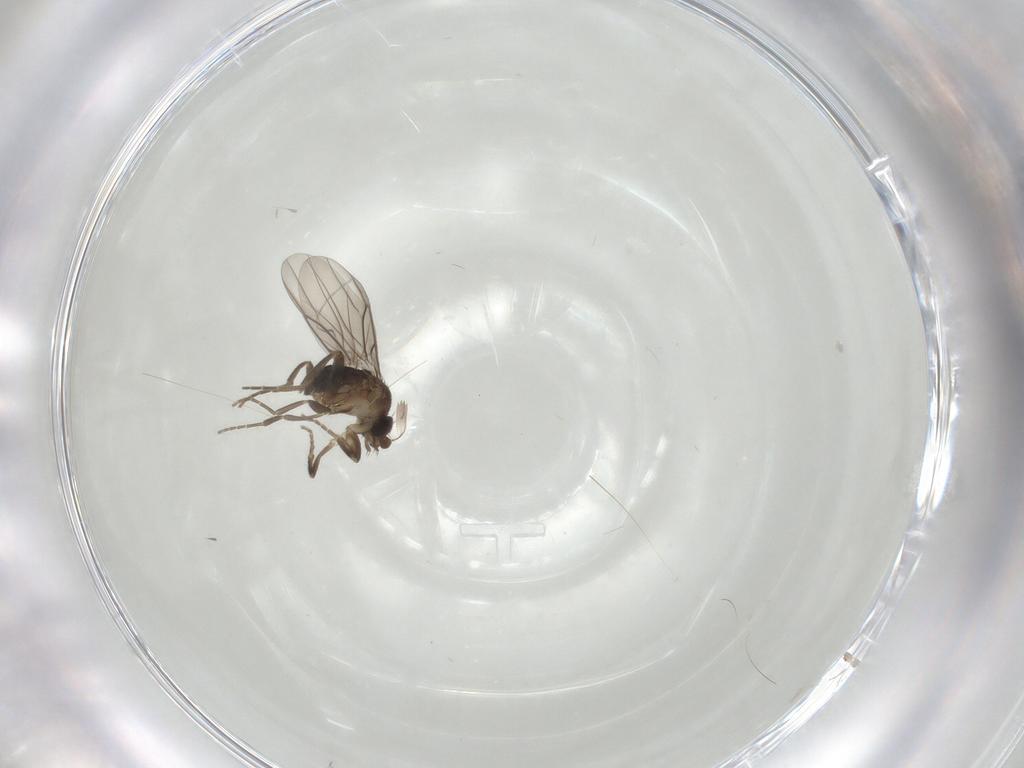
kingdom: Animalia
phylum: Arthropoda
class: Insecta
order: Diptera
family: Cecidomyiidae
